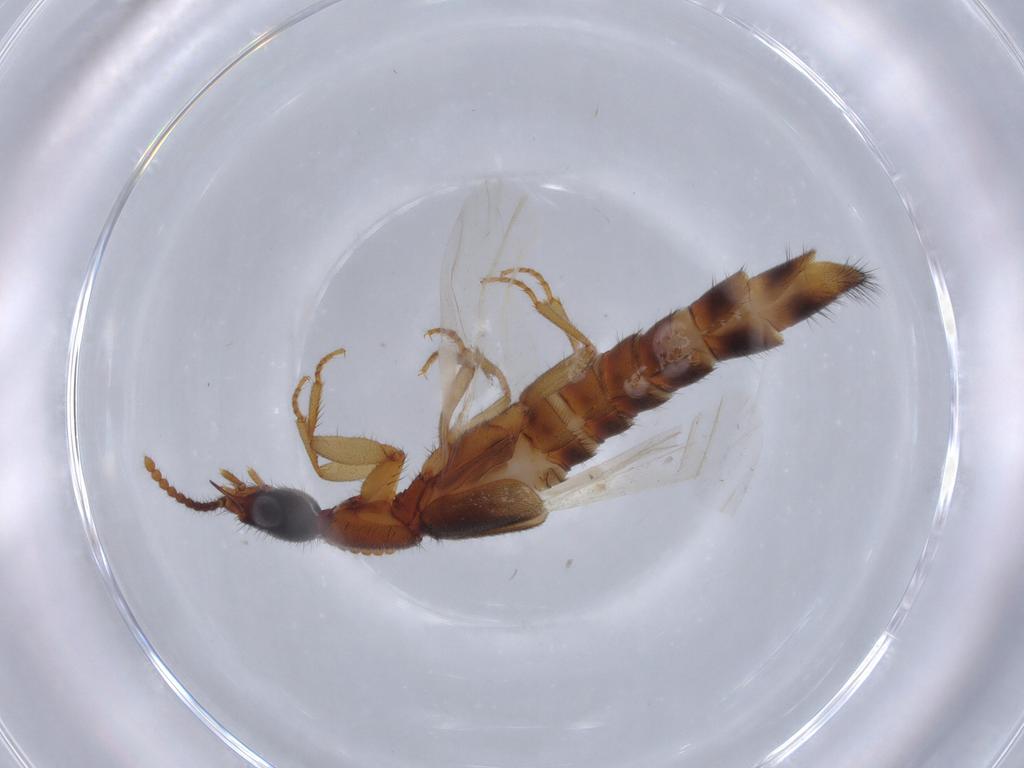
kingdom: Animalia
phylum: Arthropoda
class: Insecta
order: Coleoptera
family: Staphylinidae
